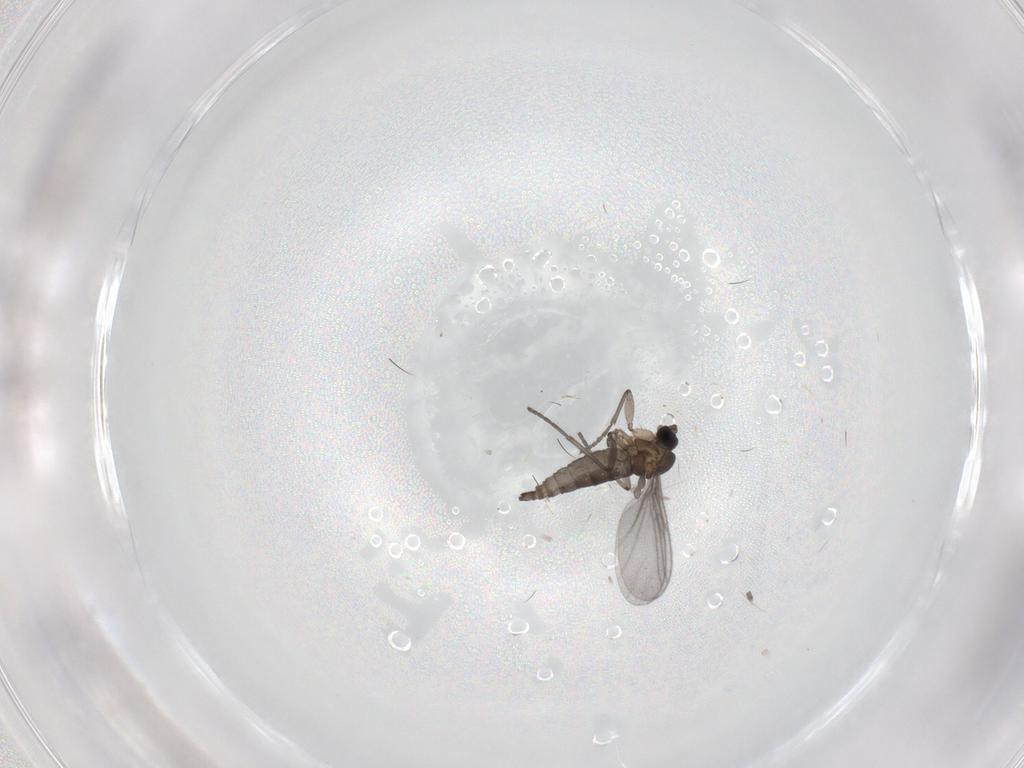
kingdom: Animalia
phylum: Arthropoda
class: Insecta
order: Diptera
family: Sciaridae
